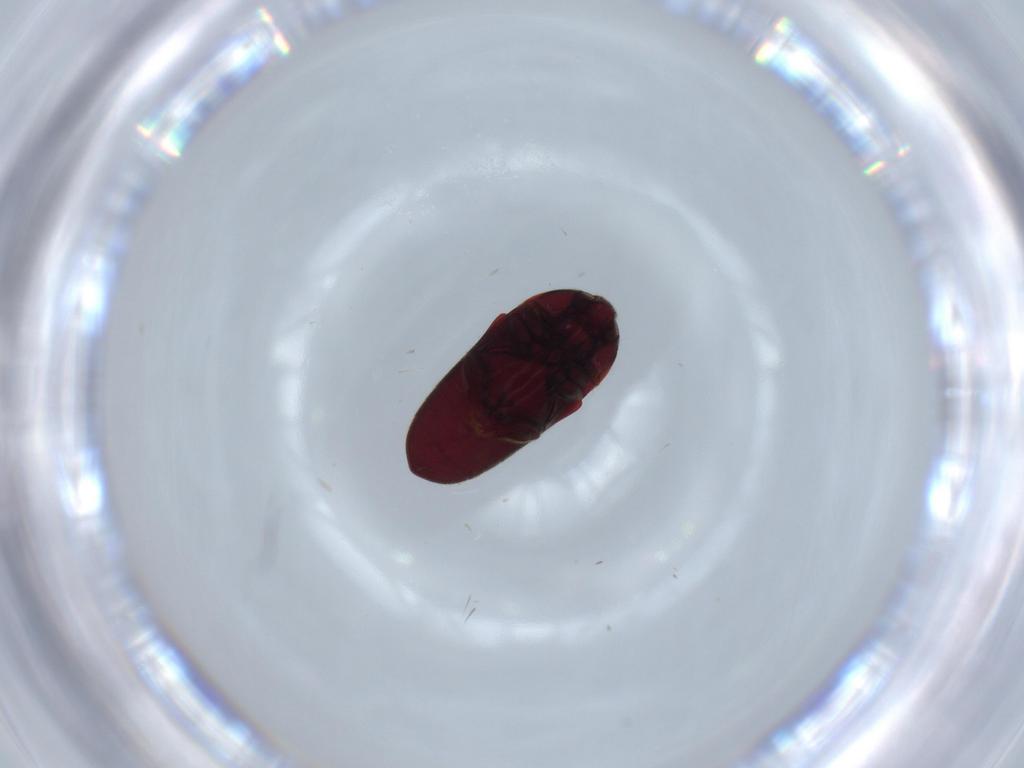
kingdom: Animalia
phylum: Arthropoda
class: Insecta
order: Coleoptera
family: Throscidae
